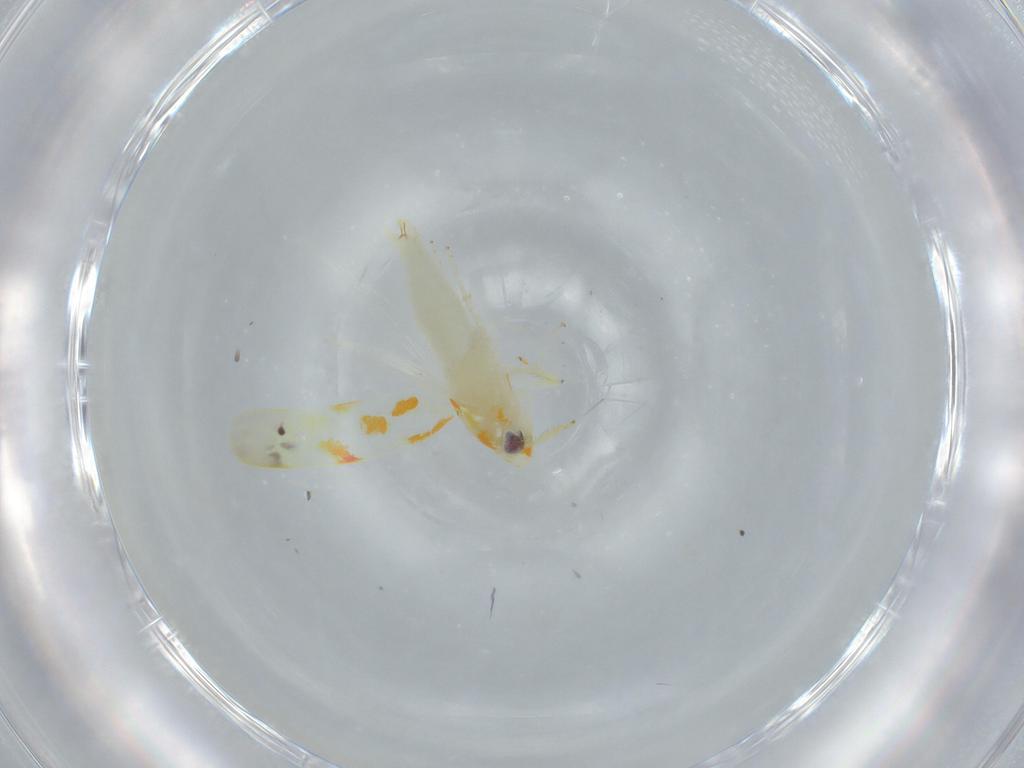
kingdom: Animalia
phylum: Arthropoda
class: Insecta
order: Hemiptera
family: Cicadellidae
